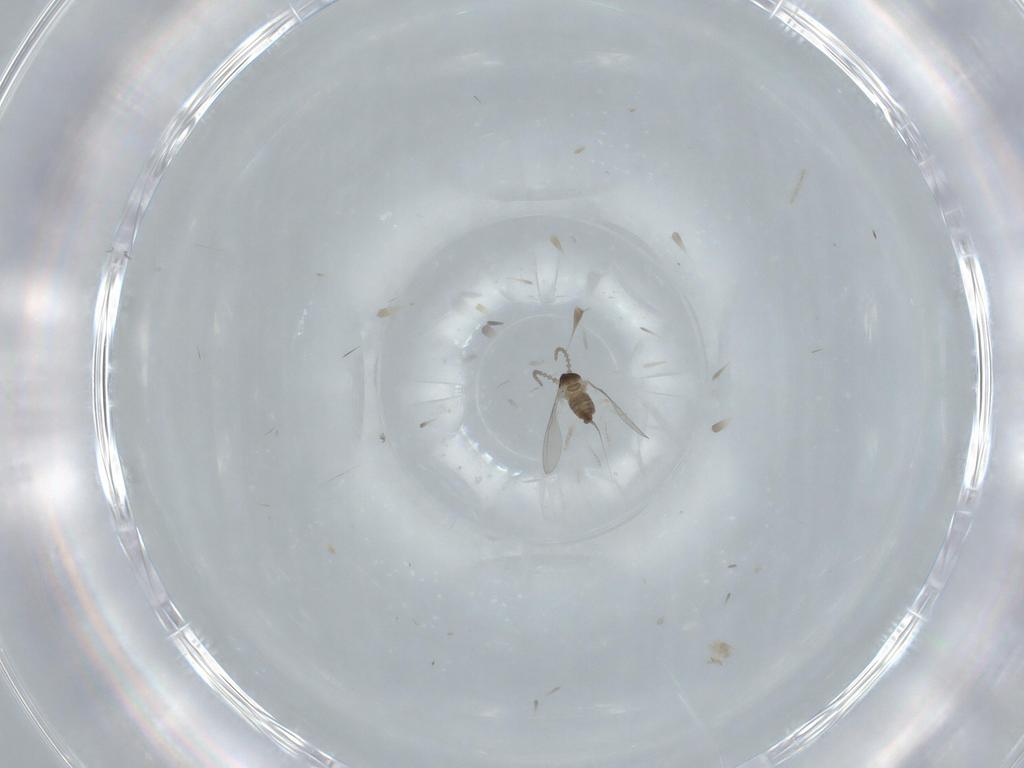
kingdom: Animalia
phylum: Arthropoda
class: Insecta
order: Diptera
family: Cecidomyiidae
